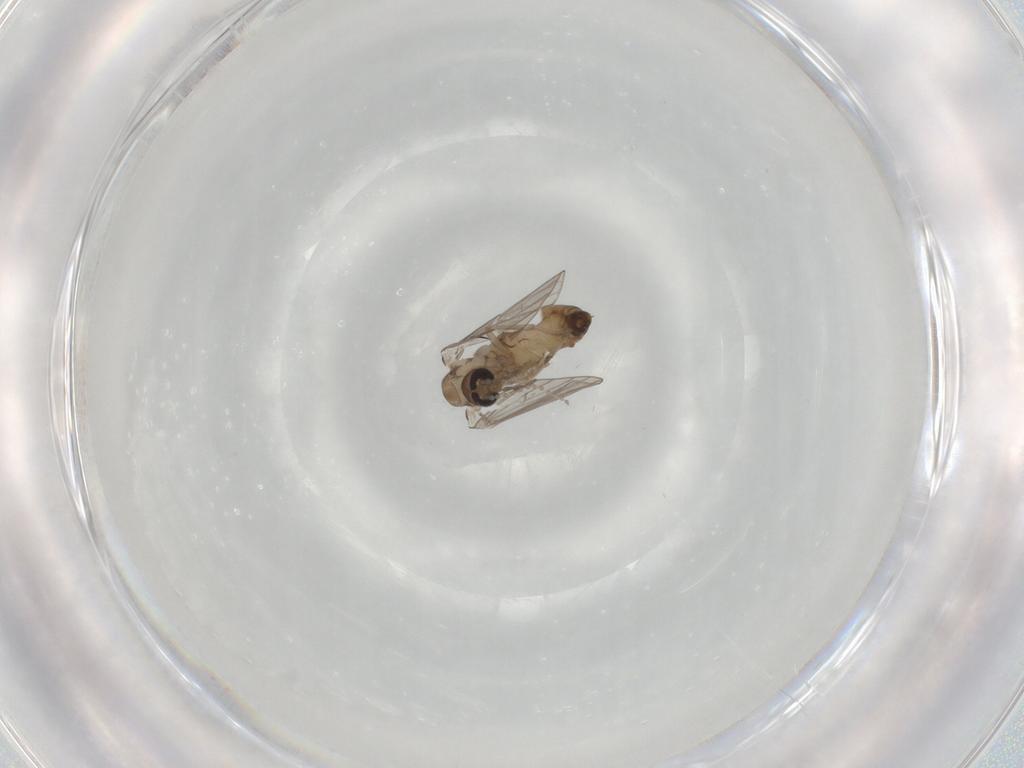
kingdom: Animalia
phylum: Arthropoda
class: Insecta
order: Diptera
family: Psychodidae
